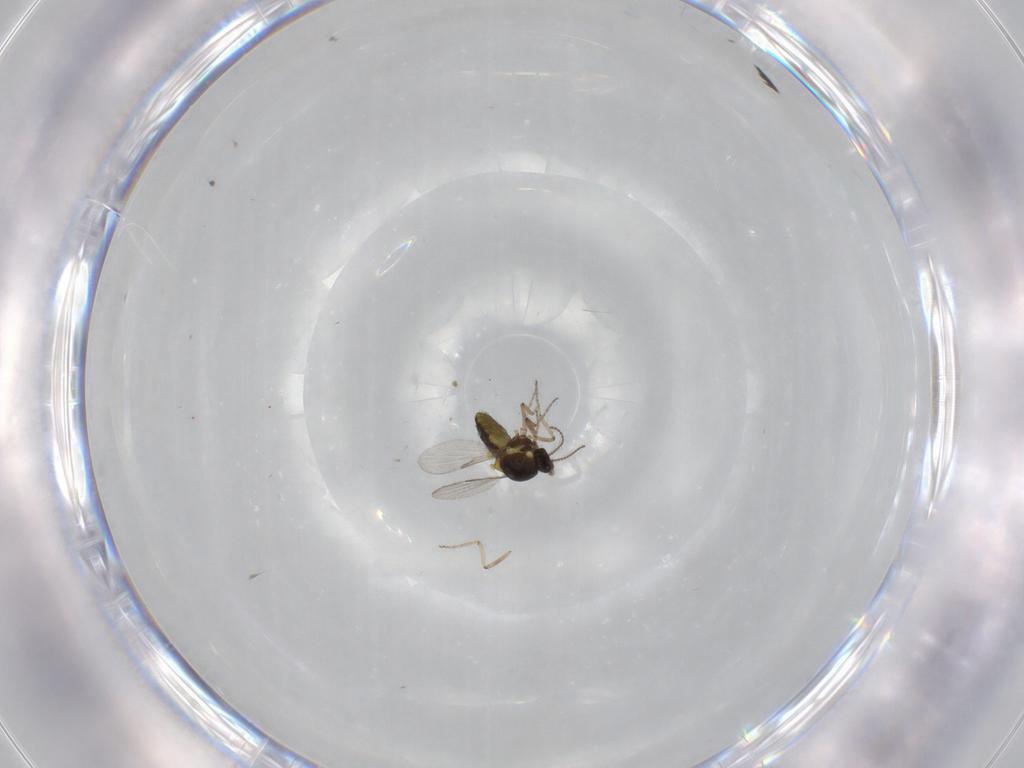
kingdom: Animalia
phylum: Arthropoda
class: Insecta
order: Diptera
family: Ceratopogonidae
